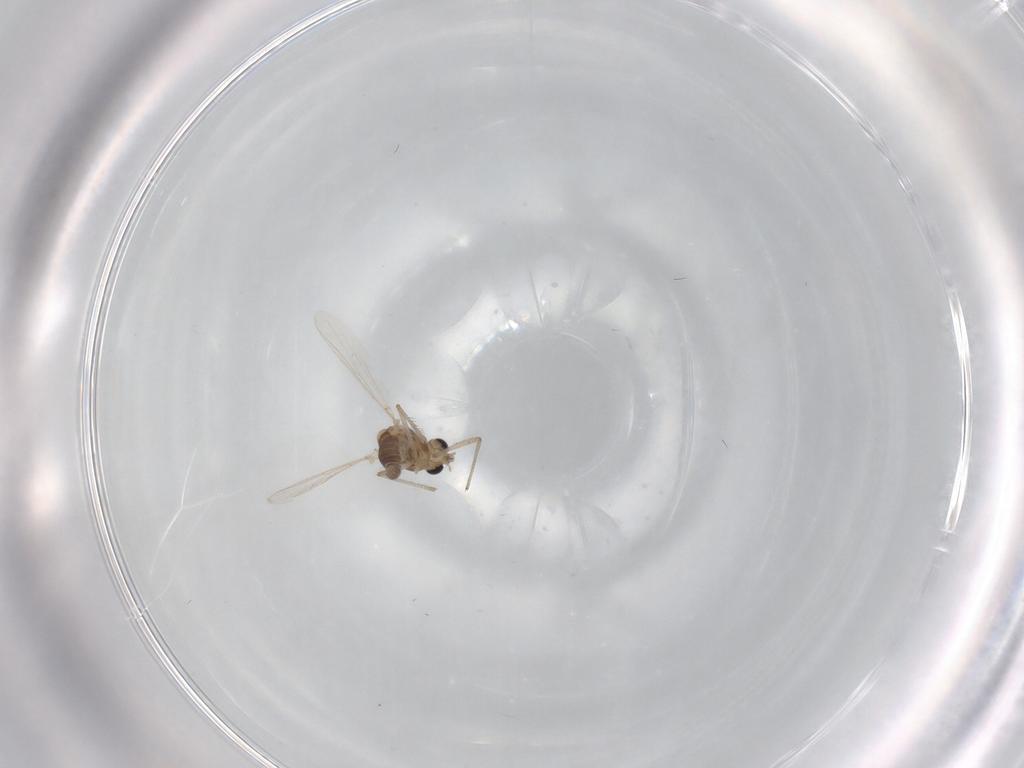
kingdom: Animalia
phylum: Arthropoda
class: Insecta
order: Diptera
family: Chironomidae
